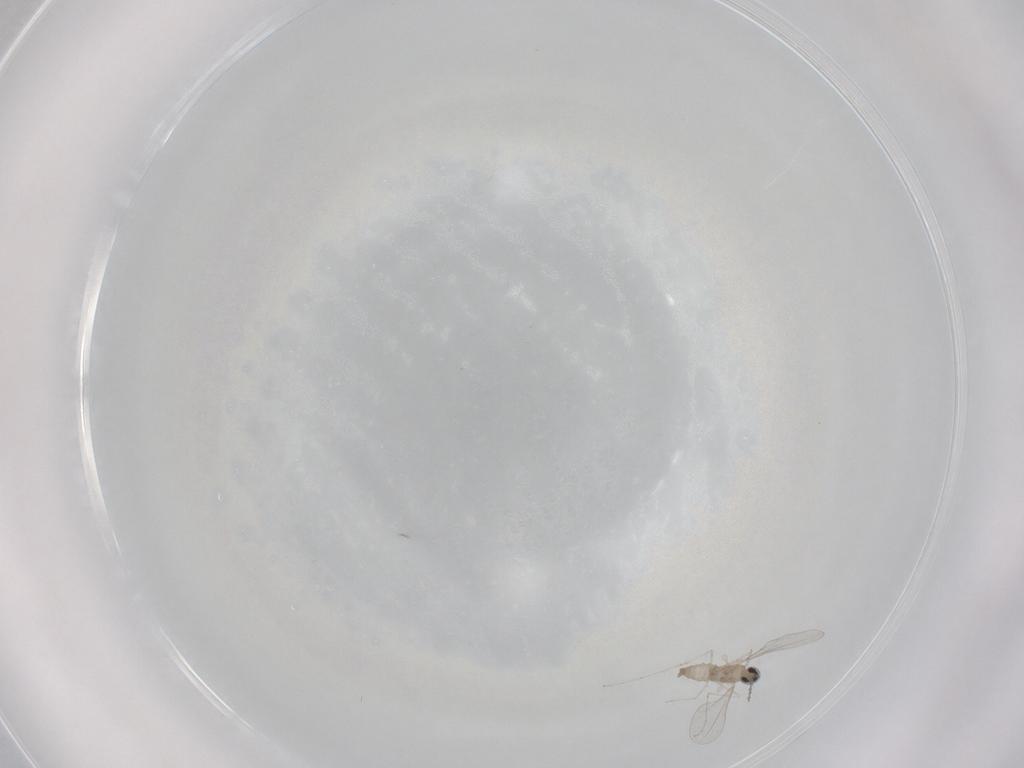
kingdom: Animalia
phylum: Arthropoda
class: Insecta
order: Diptera
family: Cecidomyiidae
